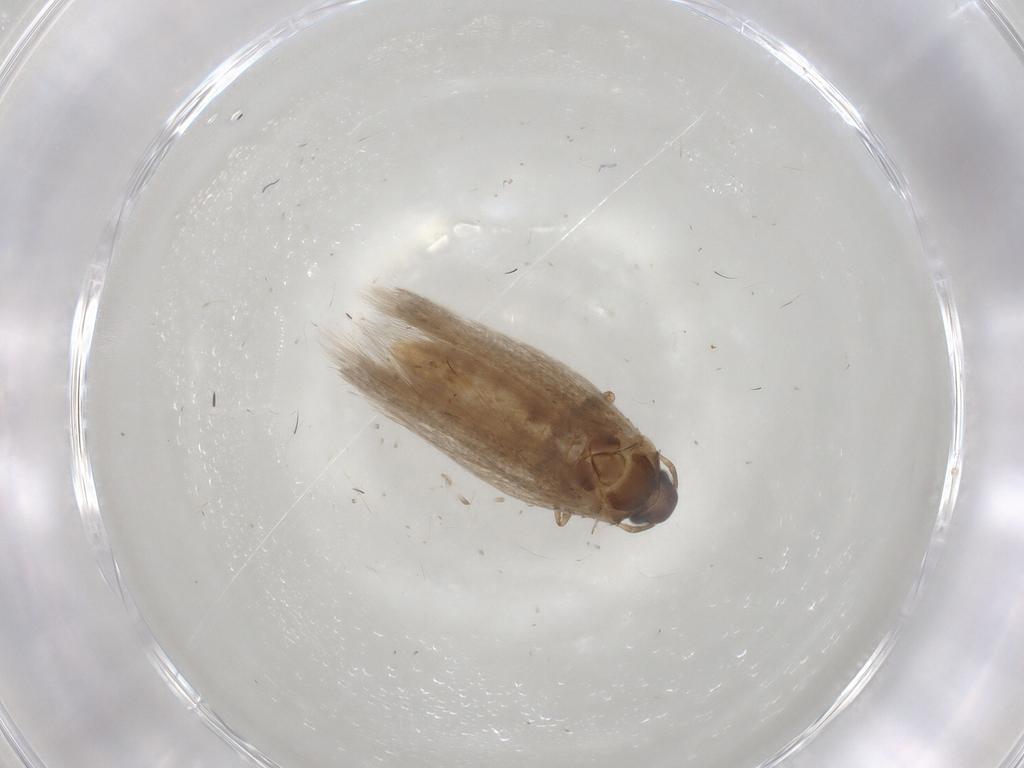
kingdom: Animalia
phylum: Arthropoda
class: Insecta
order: Lepidoptera
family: Gelechiidae
